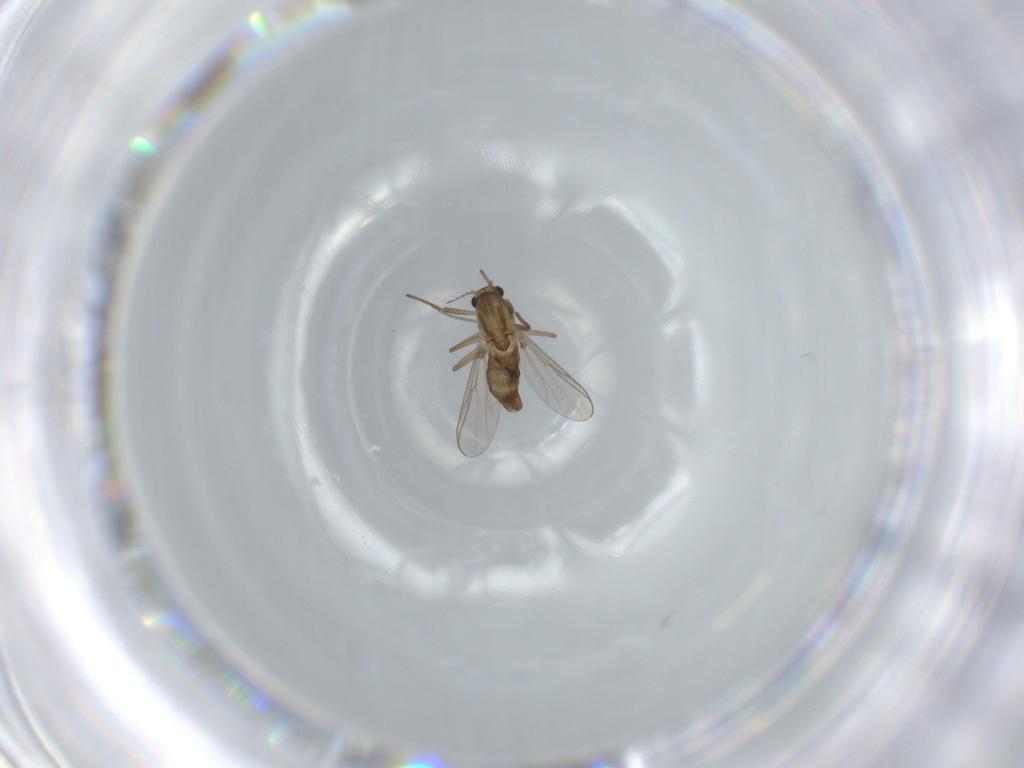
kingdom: Animalia
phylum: Arthropoda
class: Insecta
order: Diptera
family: Chironomidae
